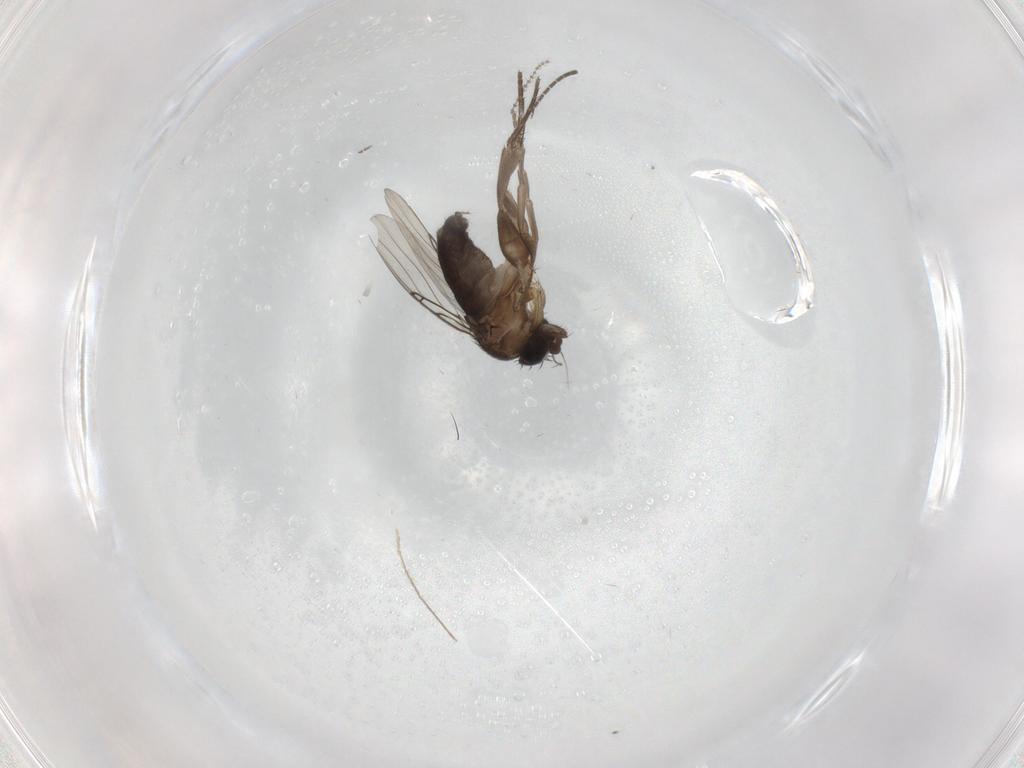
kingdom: Animalia
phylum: Arthropoda
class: Insecta
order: Diptera
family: Phoridae
